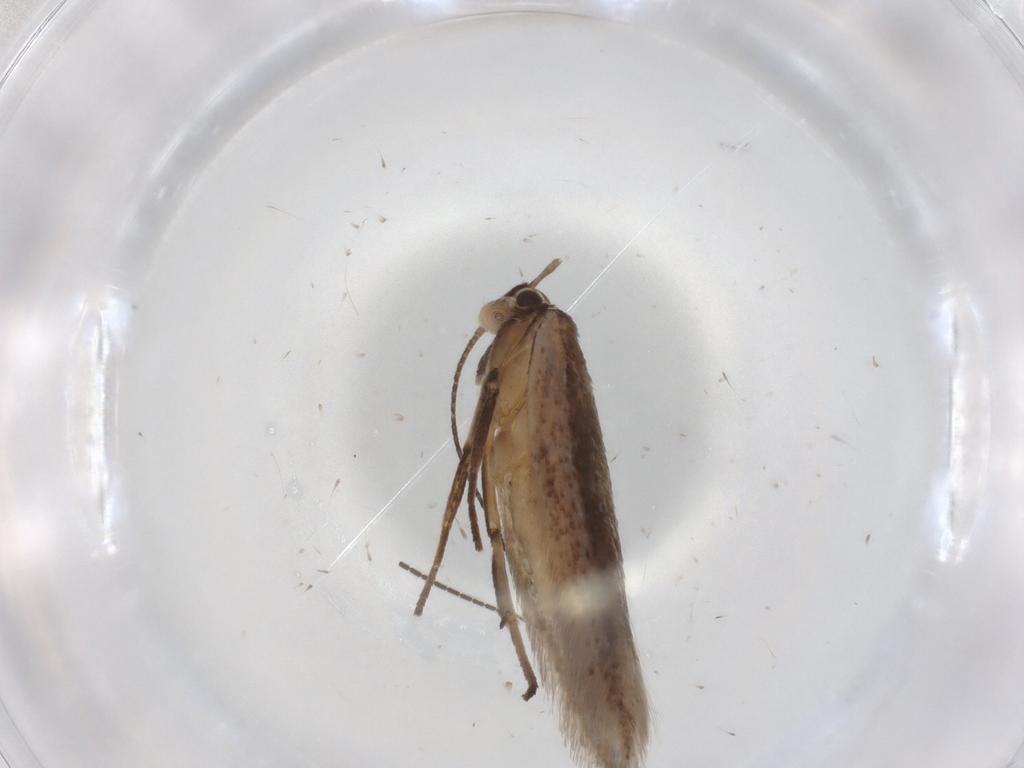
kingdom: Animalia
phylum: Arthropoda
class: Insecta
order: Lepidoptera
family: Gelechiidae
